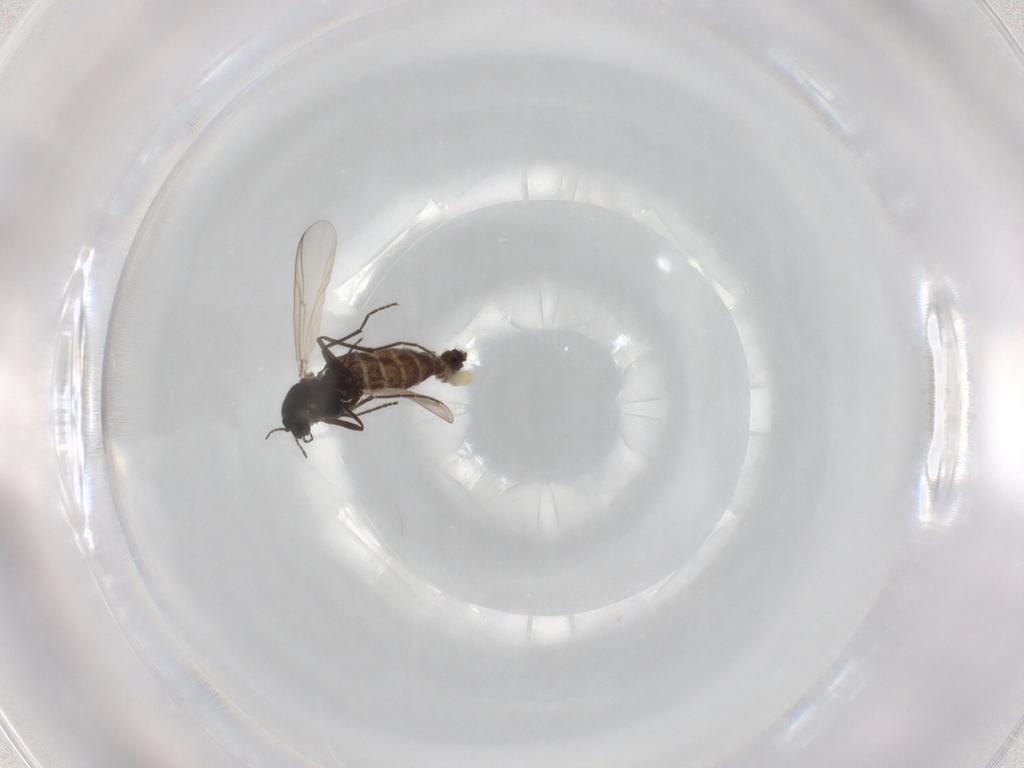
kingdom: Animalia
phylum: Arthropoda
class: Insecta
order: Diptera
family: Chironomidae
